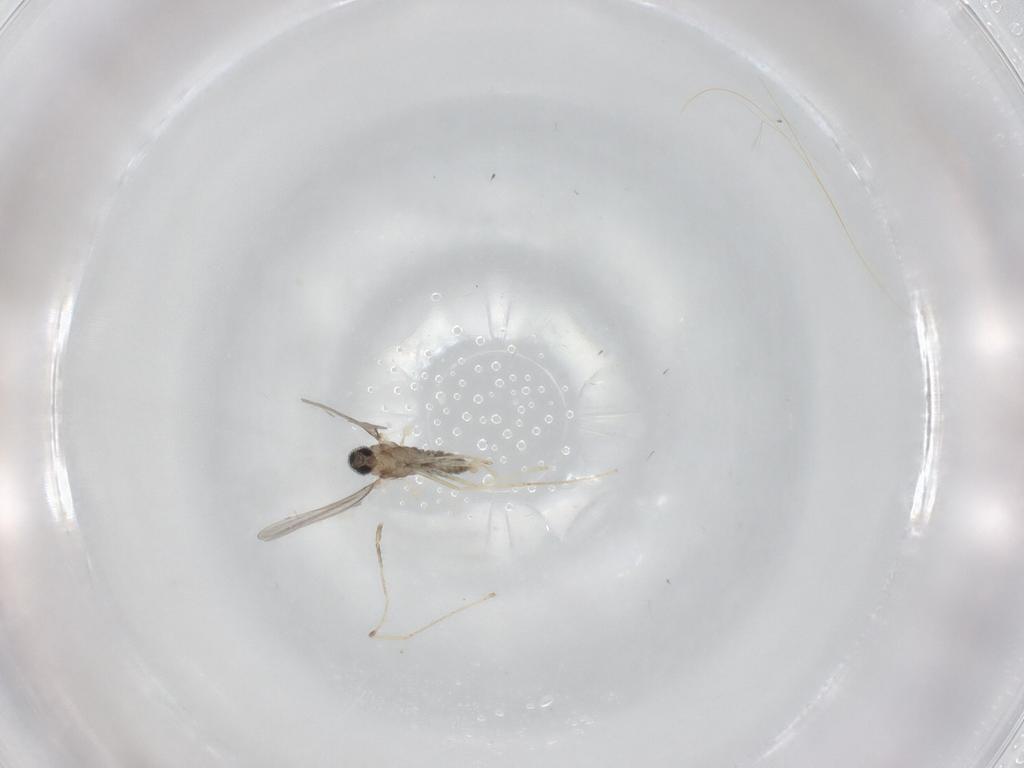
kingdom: Animalia
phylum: Arthropoda
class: Insecta
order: Diptera
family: Cecidomyiidae
